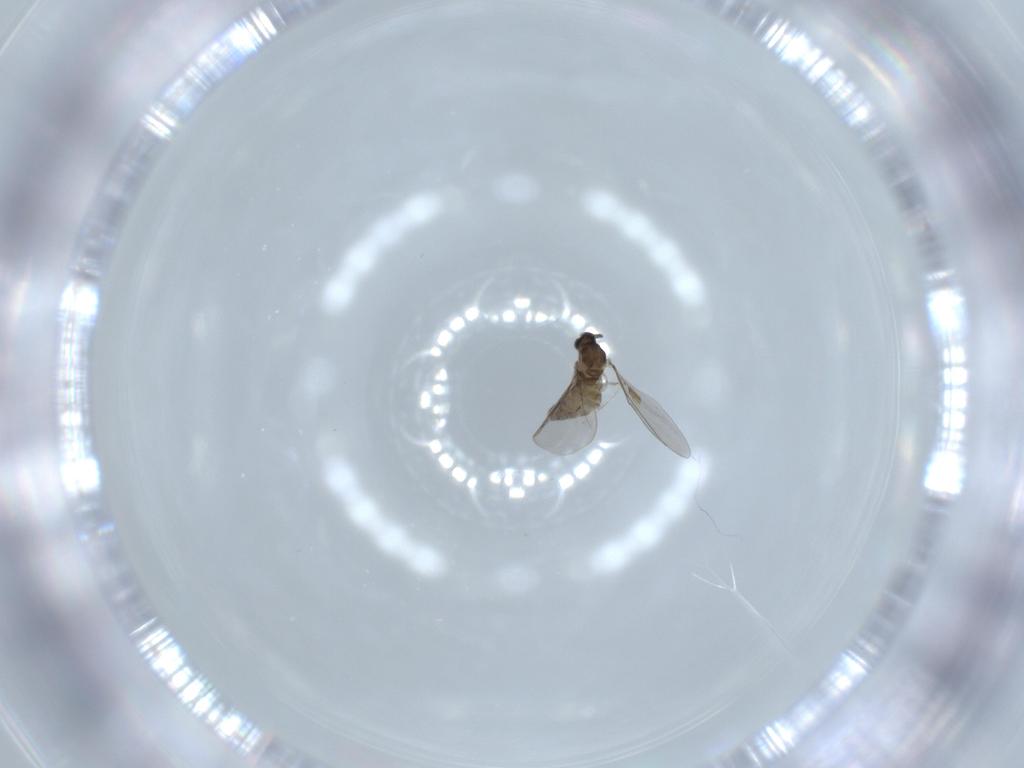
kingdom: Animalia
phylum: Arthropoda
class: Insecta
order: Diptera
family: Cecidomyiidae
